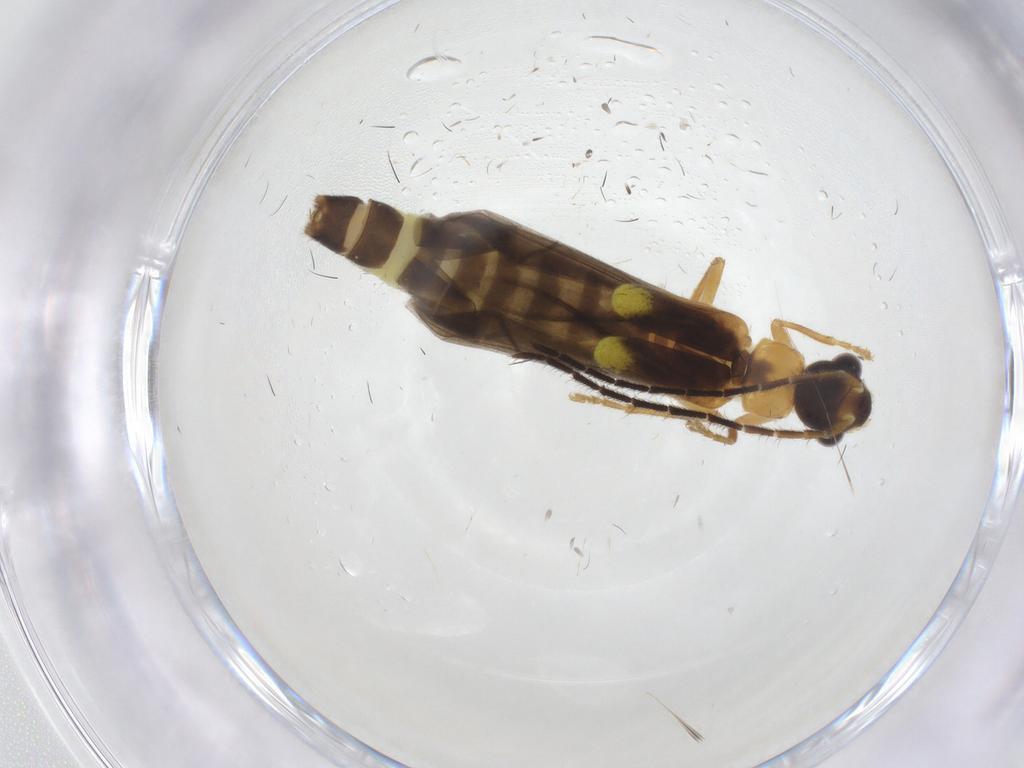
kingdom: Animalia
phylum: Arthropoda
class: Insecta
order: Coleoptera
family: Cantharidae
